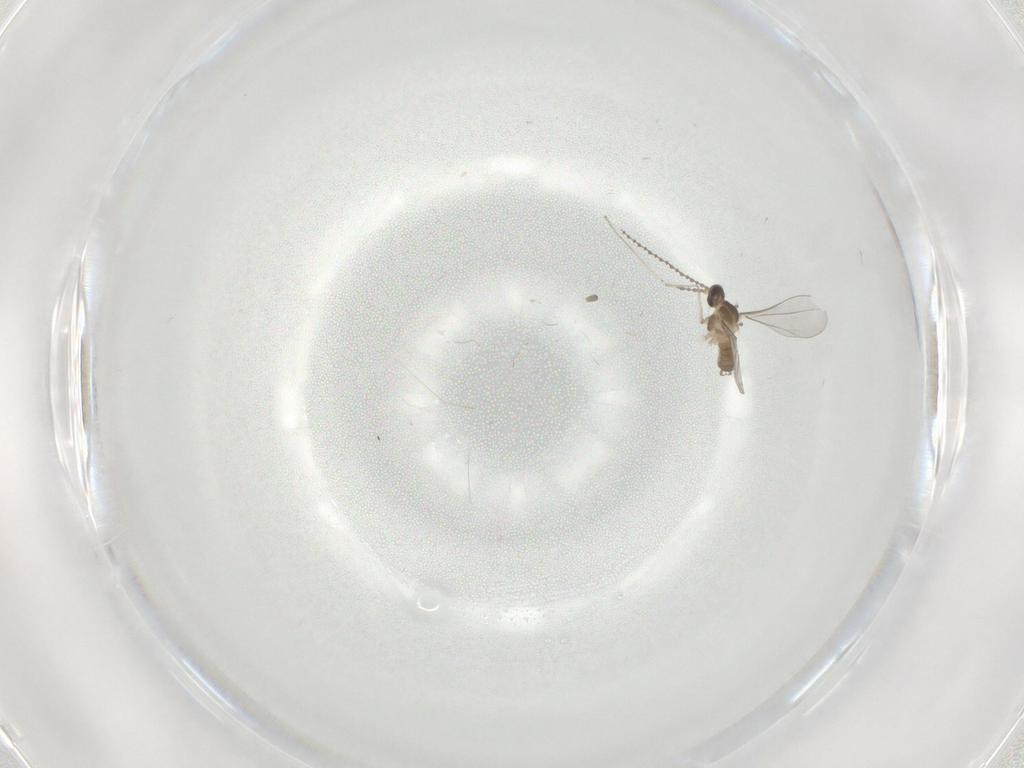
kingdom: Animalia
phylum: Arthropoda
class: Insecta
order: Diptera
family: Cecidomyiidae
